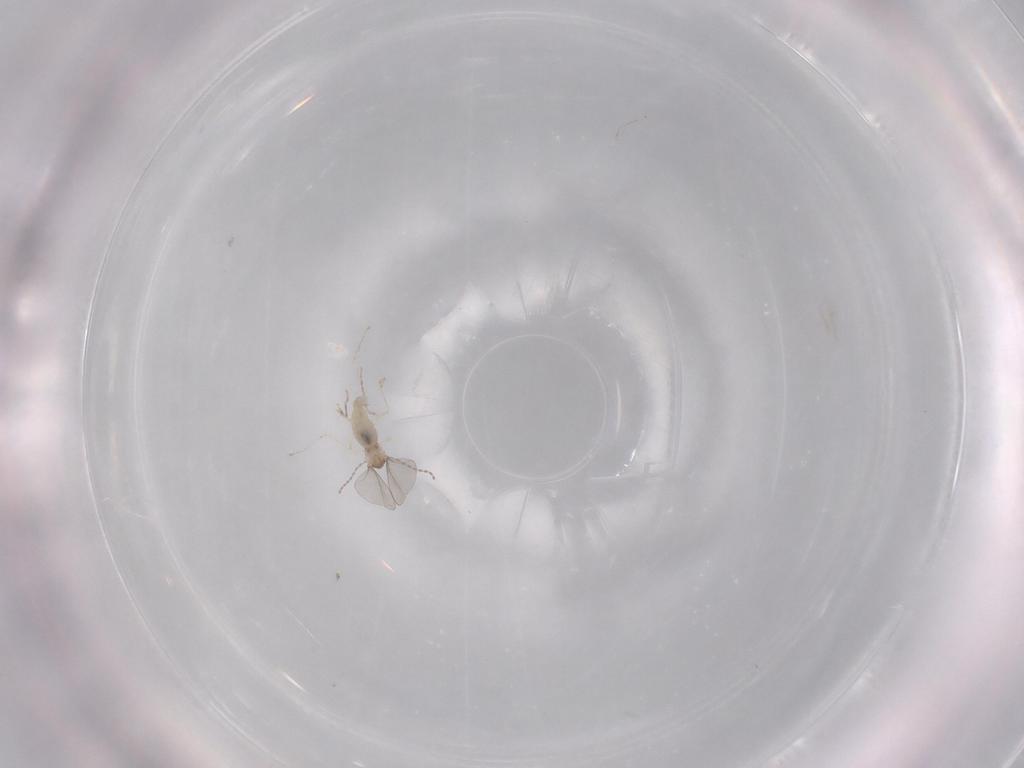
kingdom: Animalia
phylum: Arthropoda
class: Insecta
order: Diptera
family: Cecidomyiidae
